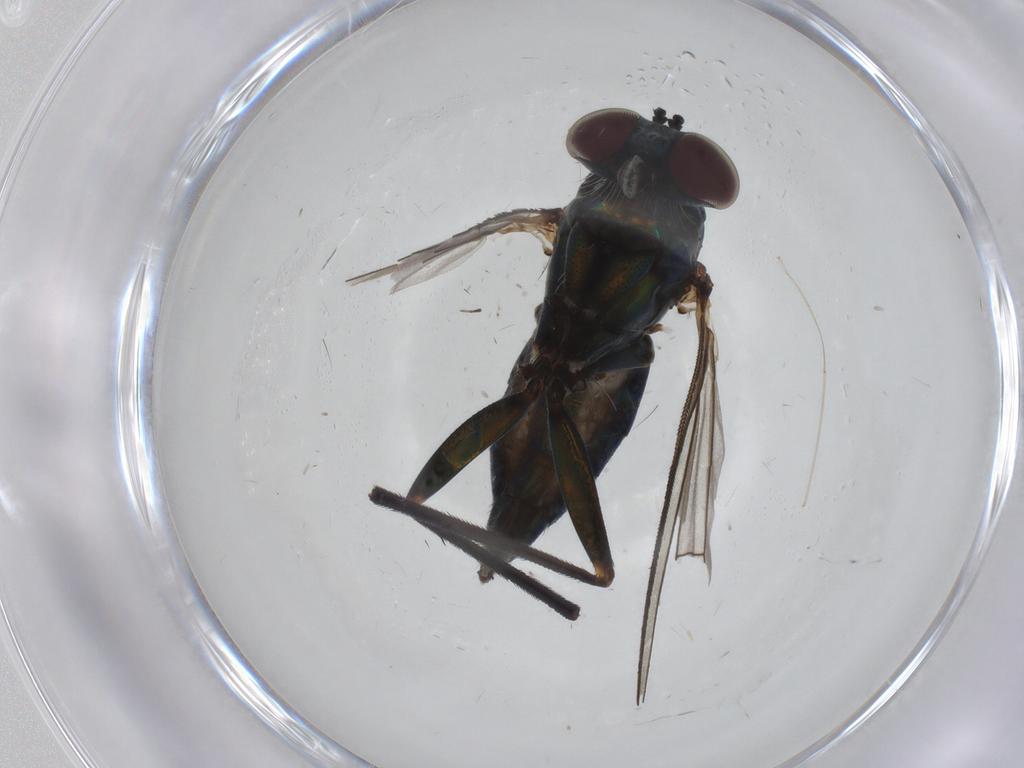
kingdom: Animalia
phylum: Arthropoda
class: Insecta
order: Diptera
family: Dolichopodidae
